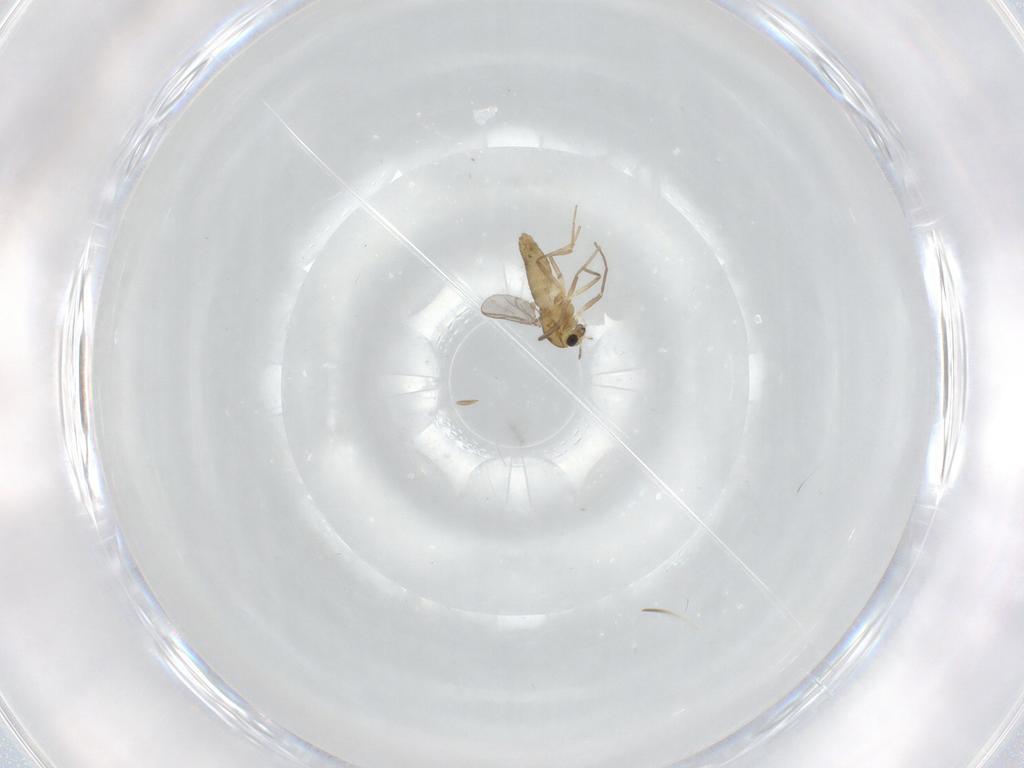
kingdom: Animalia
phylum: Arthropoda
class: Insecta
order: Diptera
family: Chironomidae
